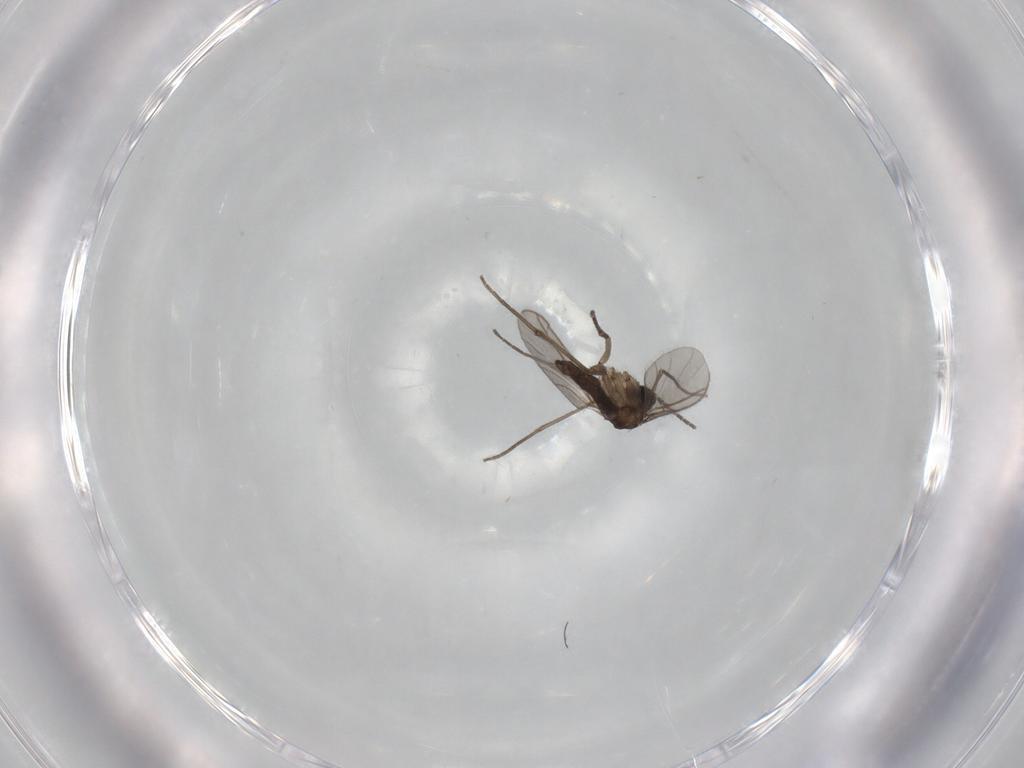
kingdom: Animalia
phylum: Arthropoda
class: Insecta
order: Diptera
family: Sciaridae
